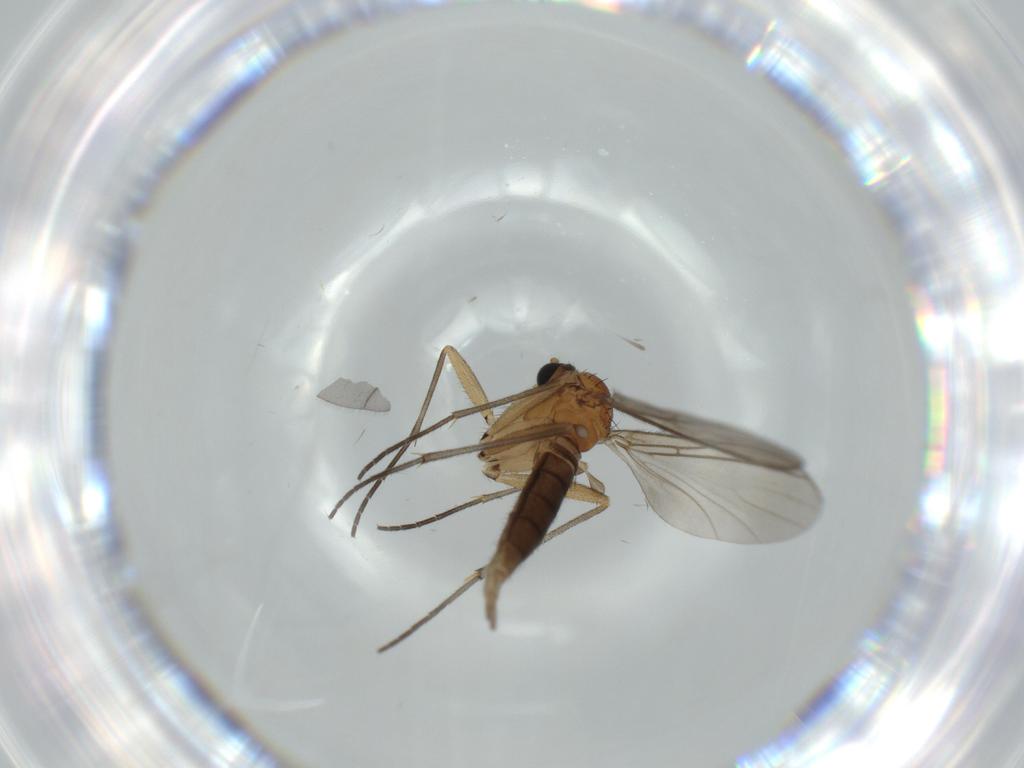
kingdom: Animalia
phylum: Arthropoda
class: Insecta
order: Diptera
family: Sciaridae
